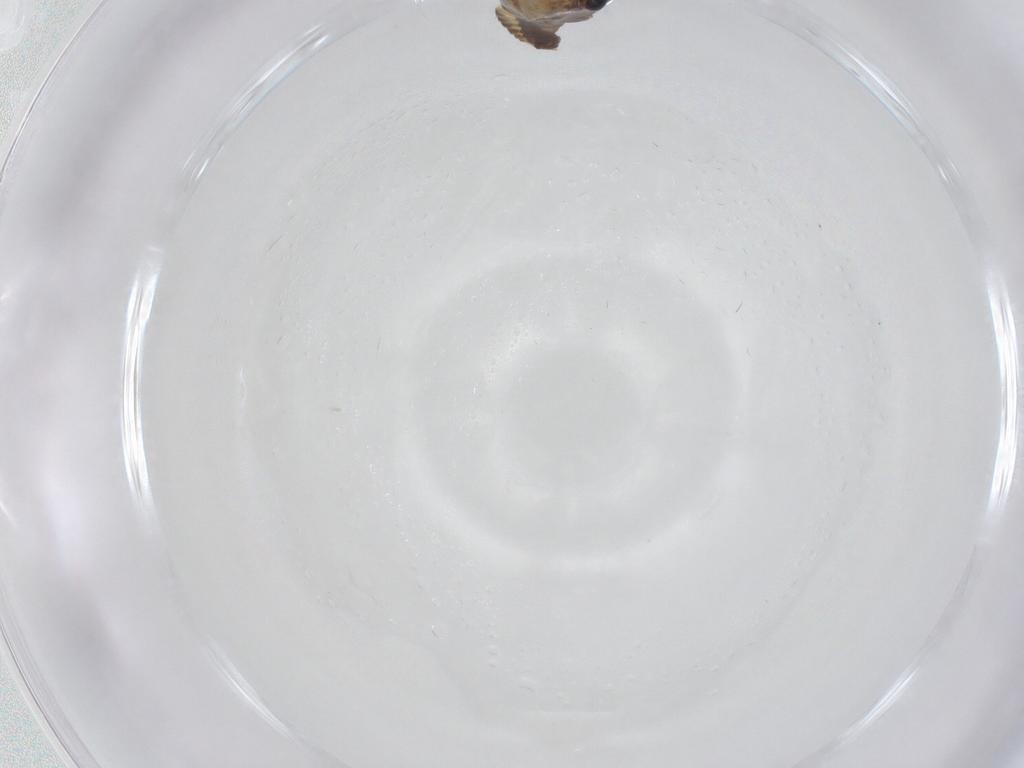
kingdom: Animalia
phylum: Arthropoda
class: Insecta
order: Diptera
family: Chironomidae
